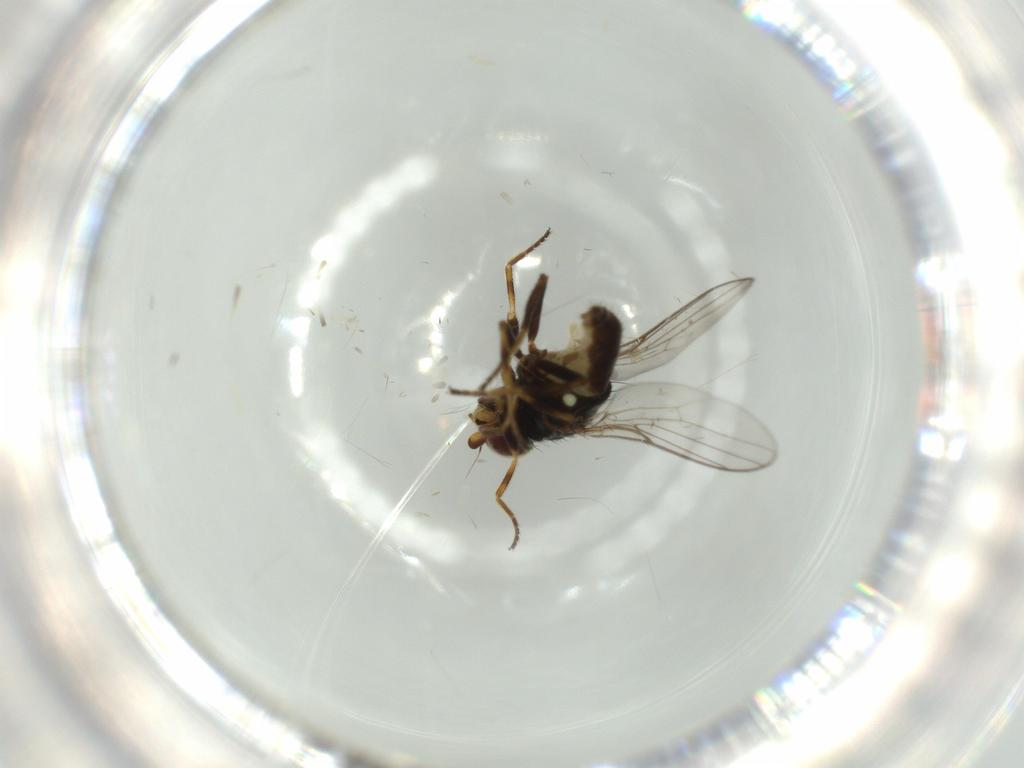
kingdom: Animalia
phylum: Arthropoda
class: Insecta
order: Diptera
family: Chloropidae
